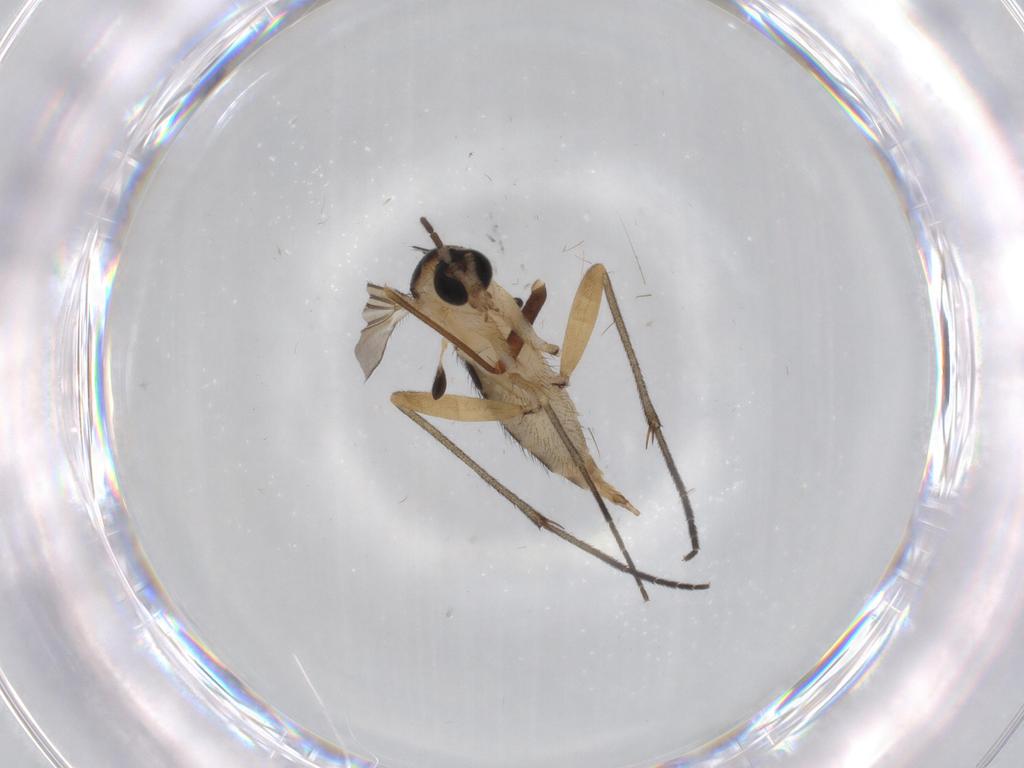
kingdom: Animalia
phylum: Arthropoda
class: Insecta
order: Diptera
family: Sciaridae
